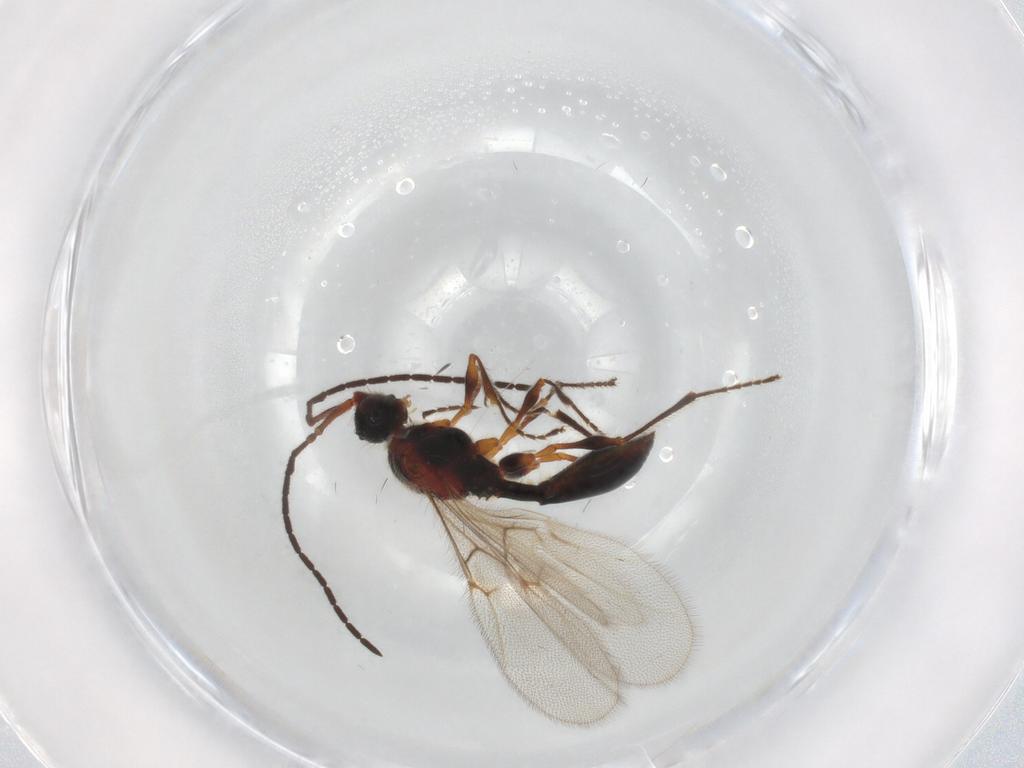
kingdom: Animalia
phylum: Arthropoda
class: Insecta
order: Hymenoptera
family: Diapriidae
